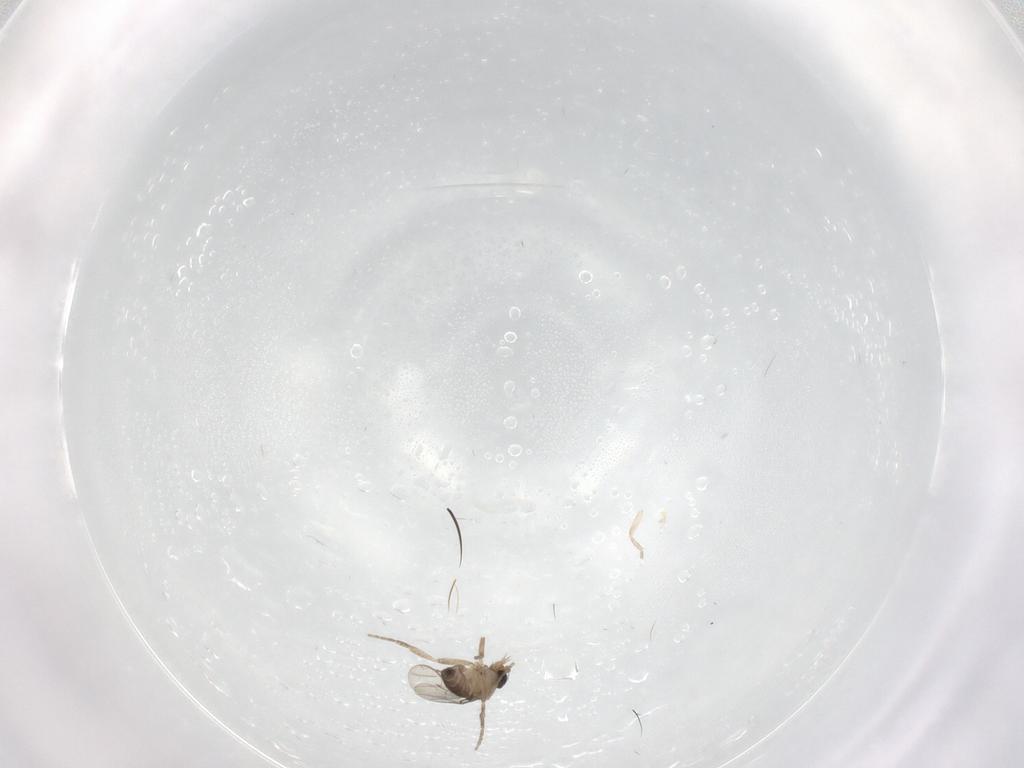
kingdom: Animalia
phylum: Arthropoda
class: Insecta
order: Diptera
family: Phoridae
